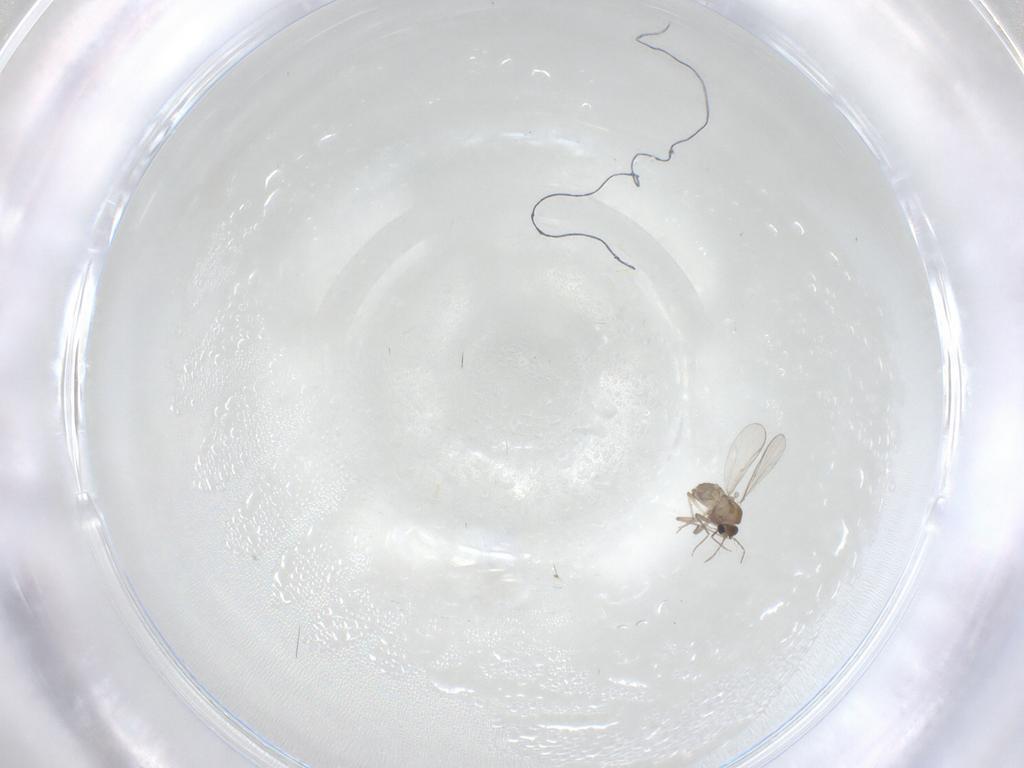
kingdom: Animalia
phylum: Arthropoda
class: Insecta
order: Diptera
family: Chironomidae
